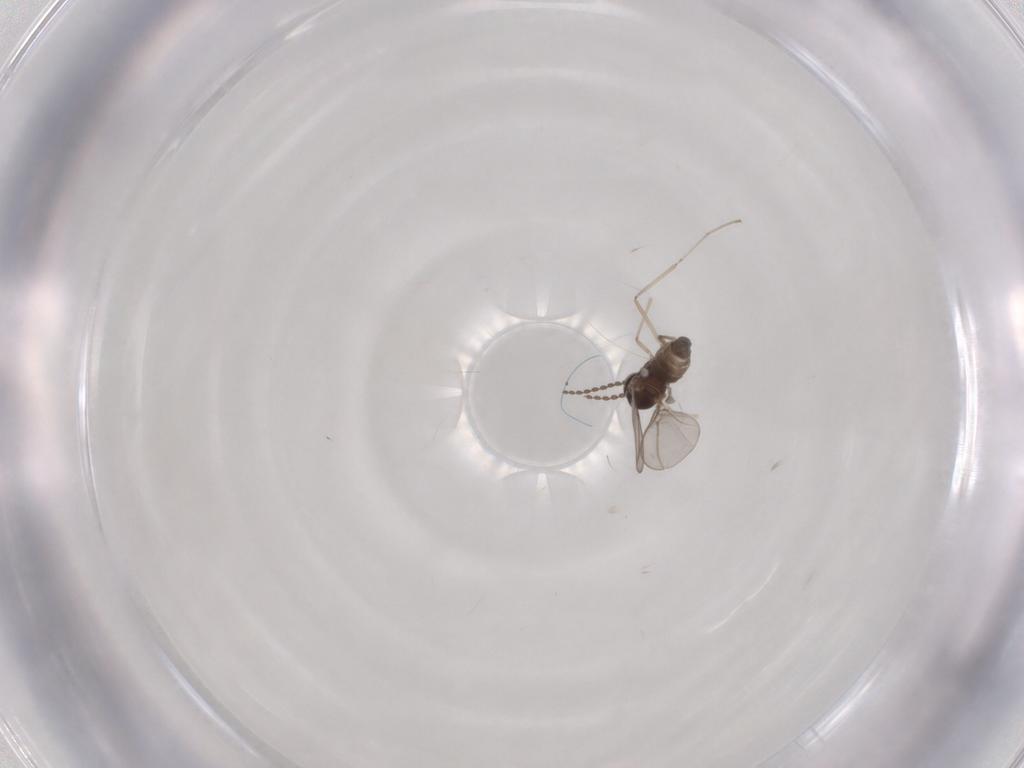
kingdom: Animalia
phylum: Arthropoda
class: Insecta
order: Diptera
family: Cecidomyiidae
